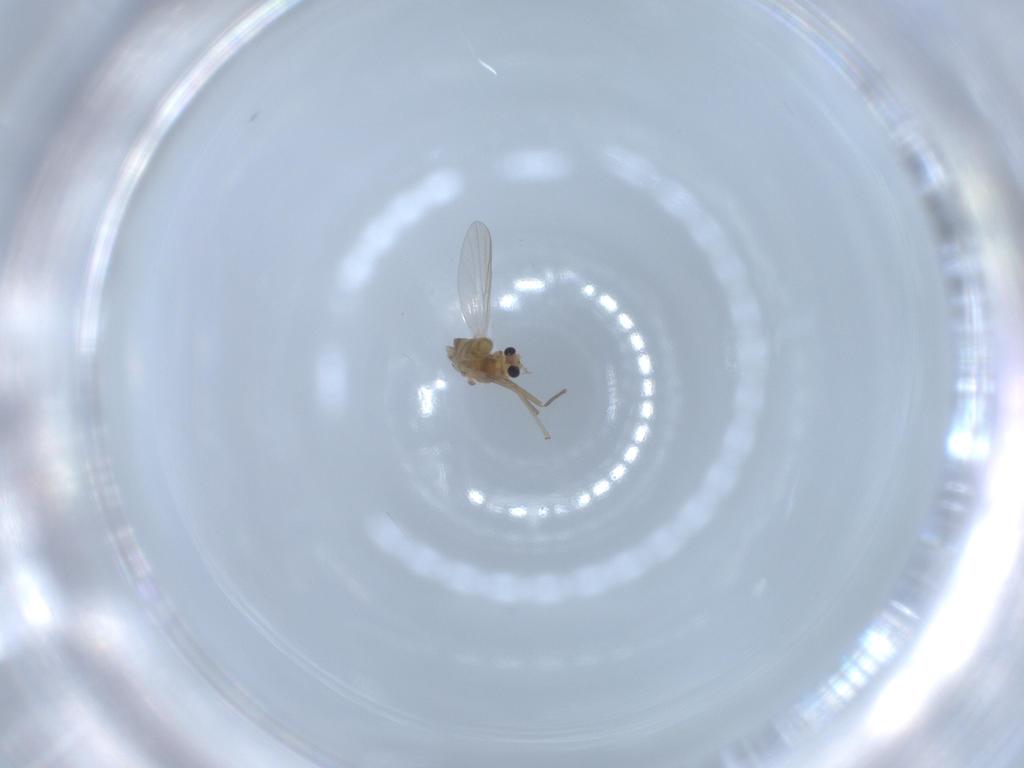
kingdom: Animalia
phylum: Arthropoda
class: Insecta
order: Diptera
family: Chironomidae
